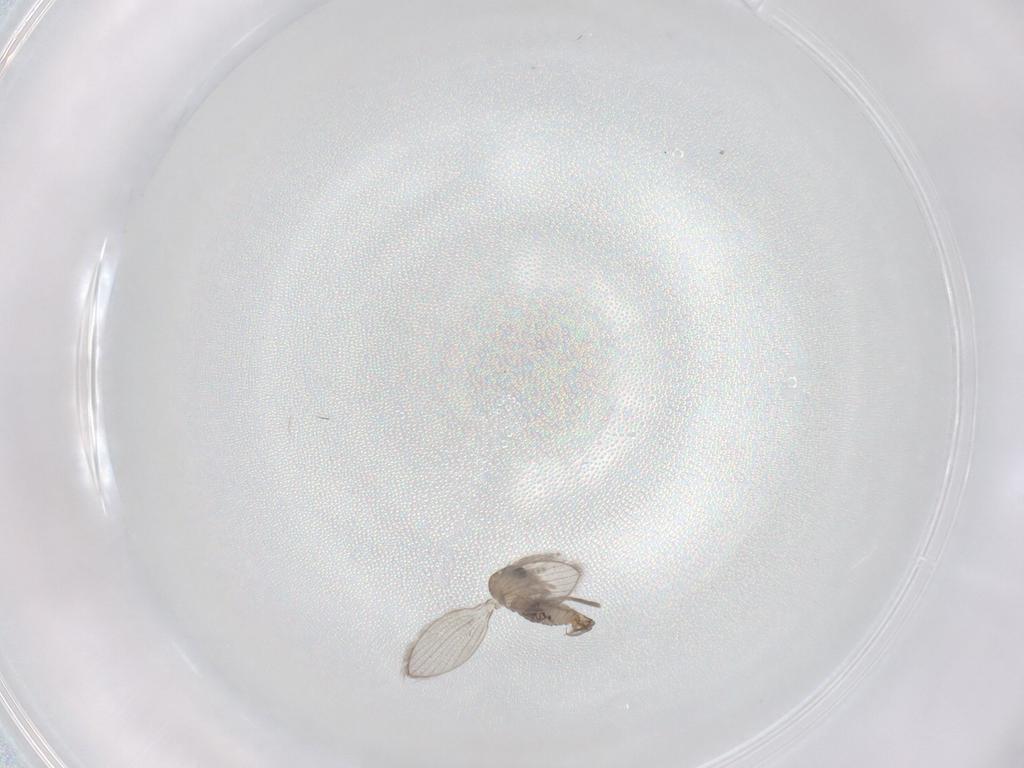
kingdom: Animalia
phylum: Arthropoda
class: Insecta
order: Diptera
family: Psychodidae
